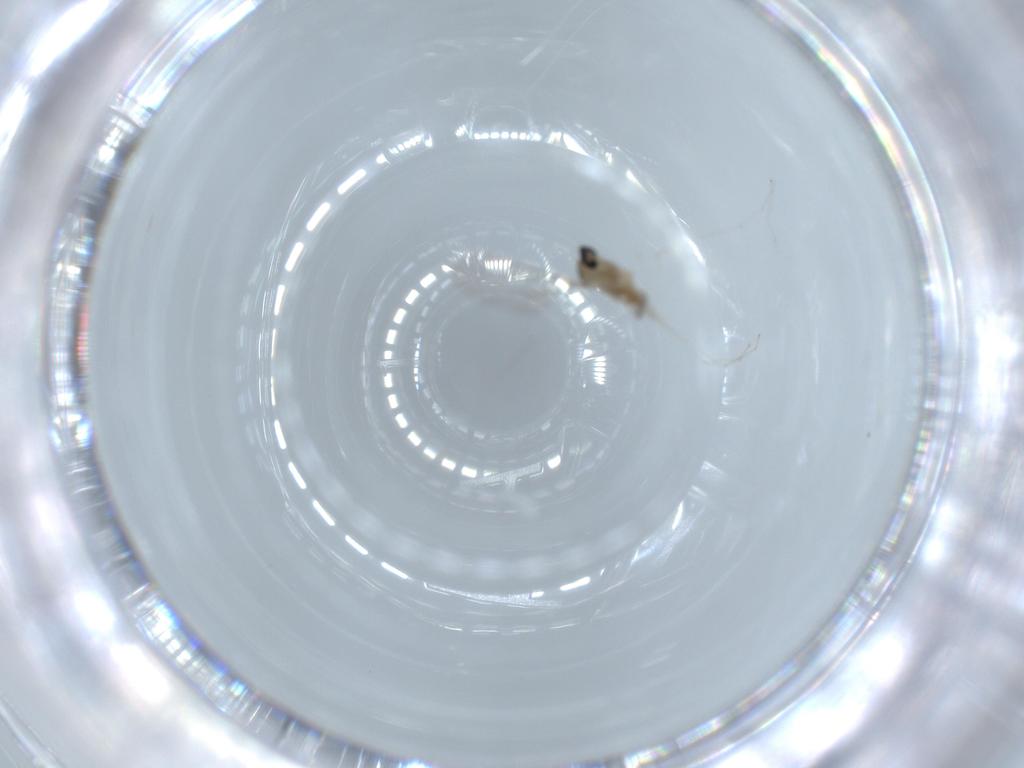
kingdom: Animalia
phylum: Arthropoda
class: Insecta
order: Diptera
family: Cecidomyiidae
